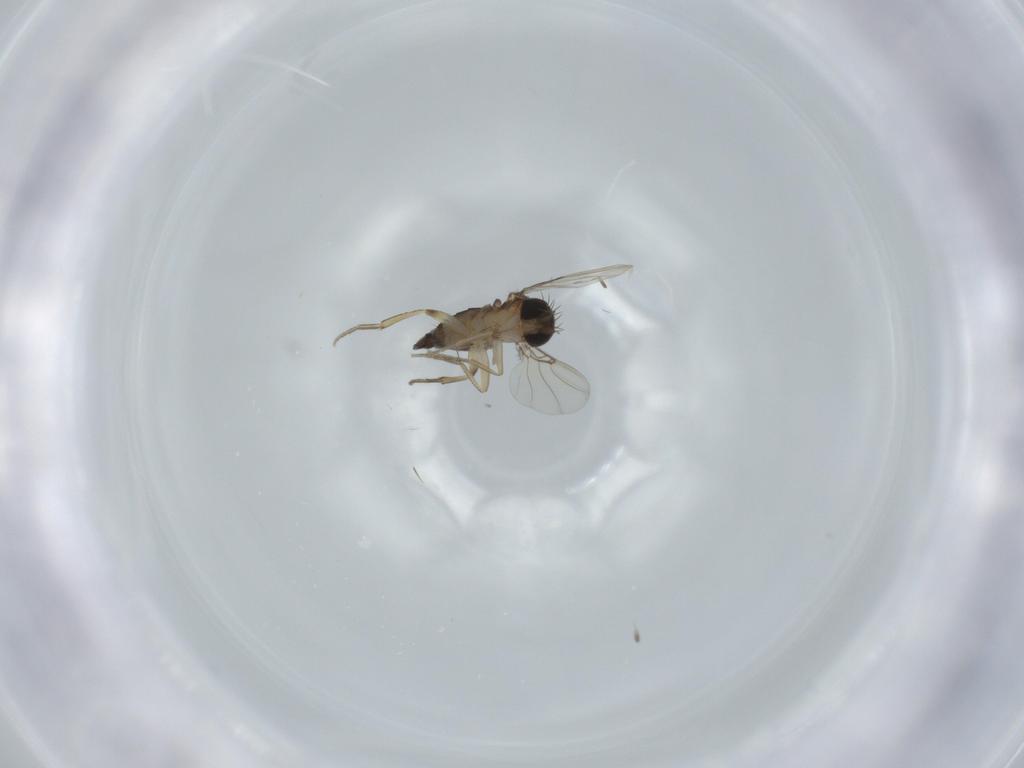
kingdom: Animalia
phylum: Arthropoda
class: Insecta
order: Diptera
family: Phoridae
